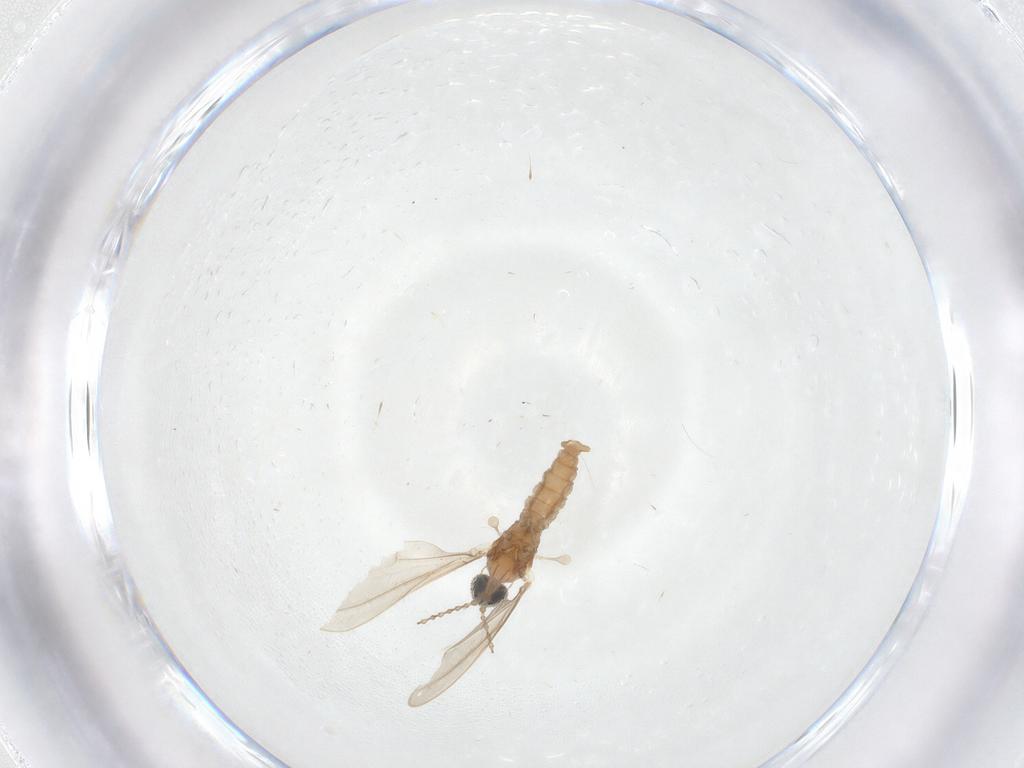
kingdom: Animalia
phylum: Arthropoda
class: Insecta
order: Diptera
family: Cecidomyiidae
